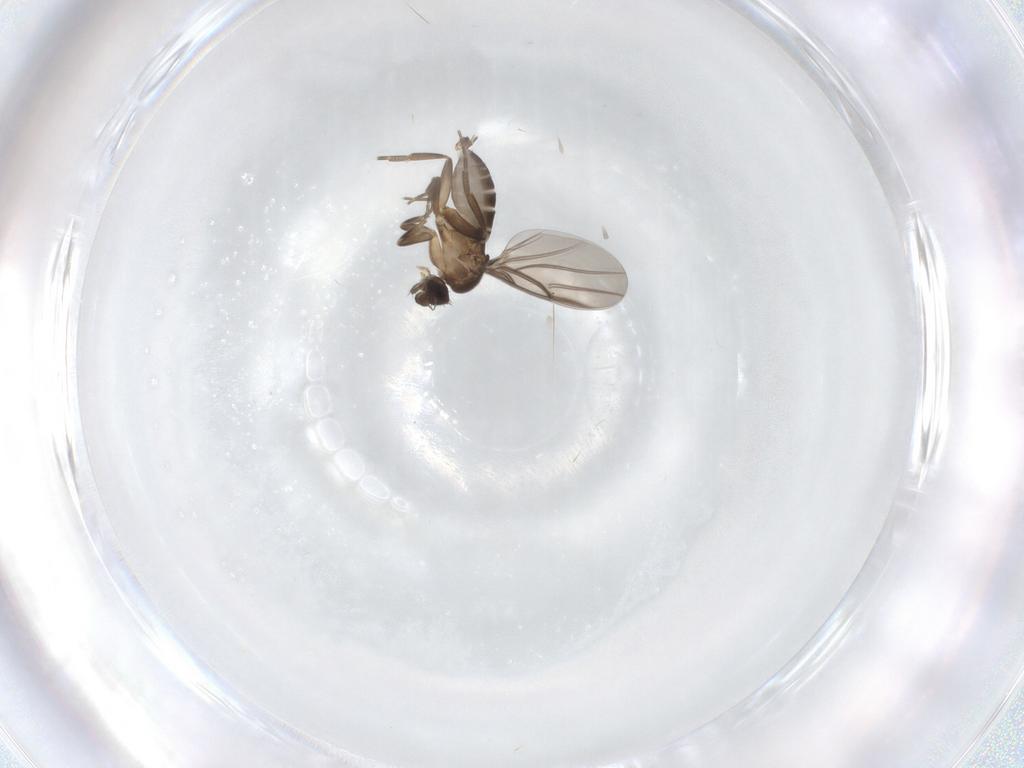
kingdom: Animalia
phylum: Arthropoda
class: Insecta
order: Diptera
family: Phoridae
